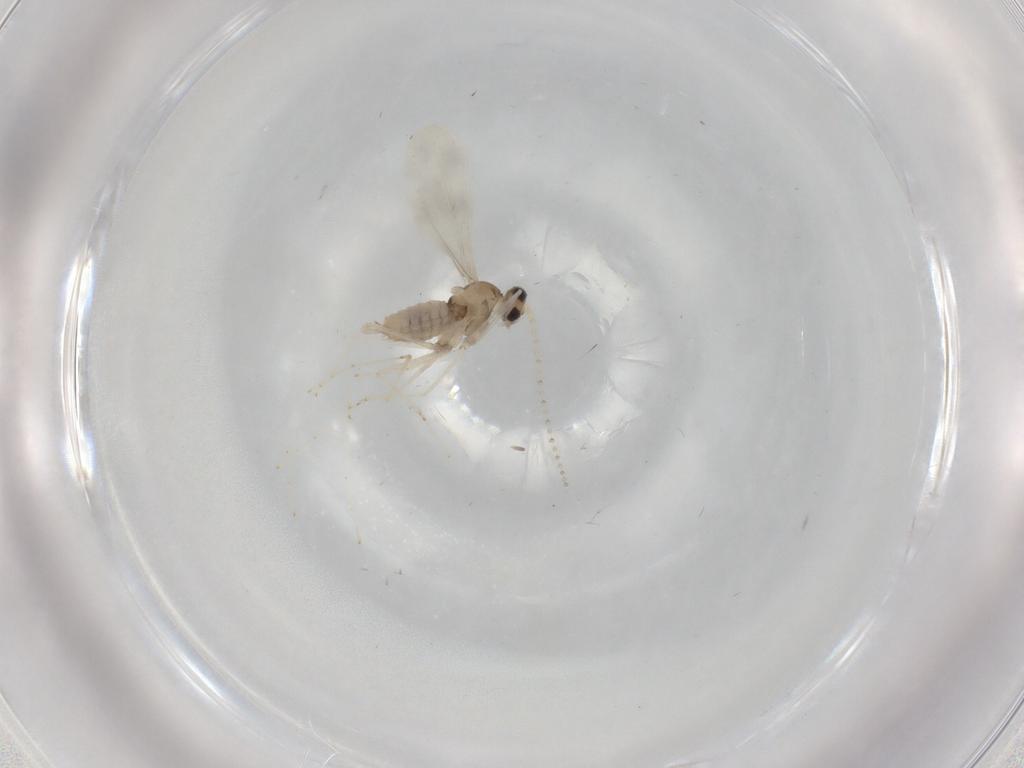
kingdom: Animalia
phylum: Arthropoda
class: Insecta
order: Diptera
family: Cecidomyiidae
